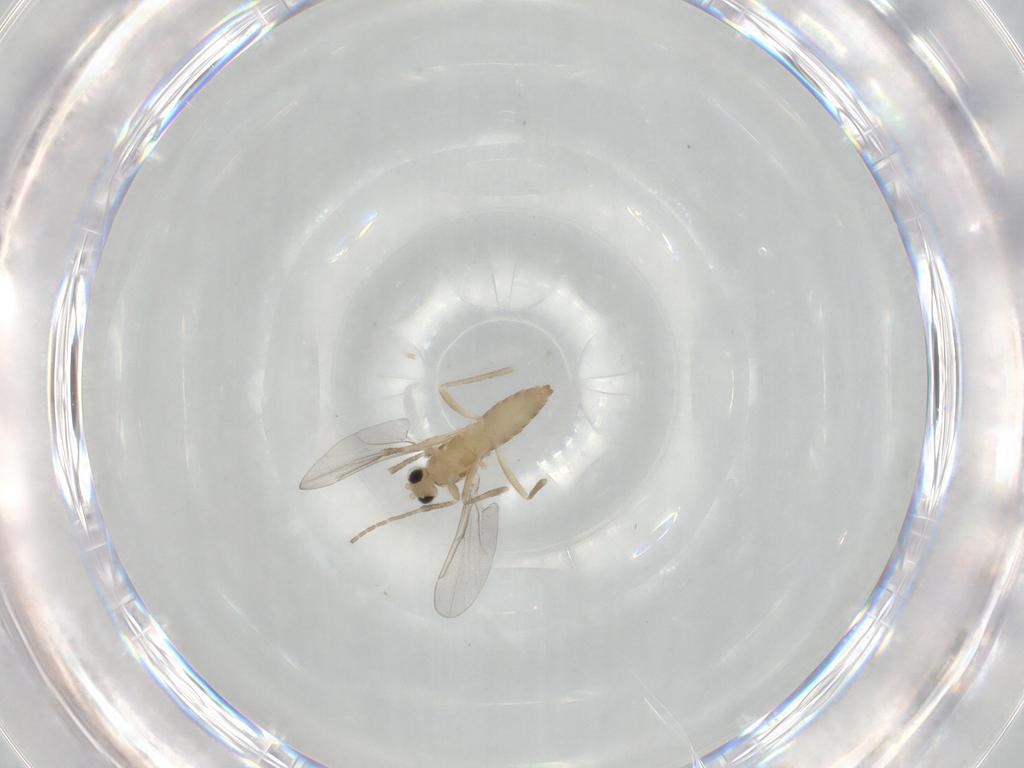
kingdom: Animalia
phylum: Arthropoda
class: Insecta
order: Diptera
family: Cecidomyiidae
